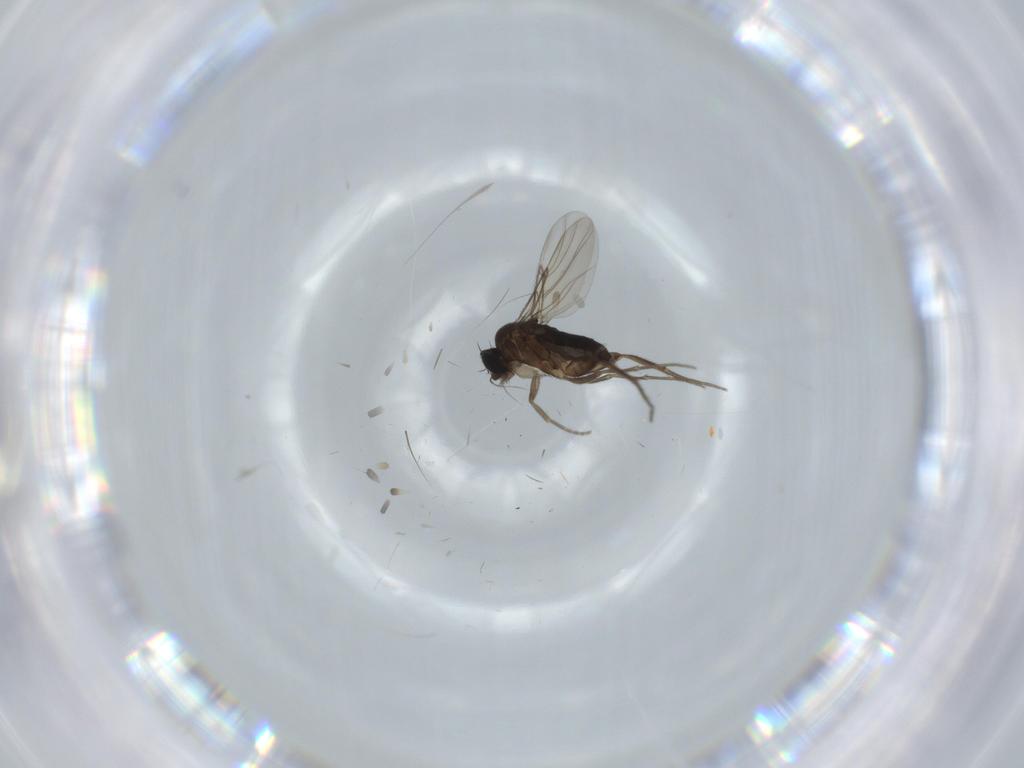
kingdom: Animalia
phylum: Arthropoda
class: Insecta
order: Diptera
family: Phoridae
